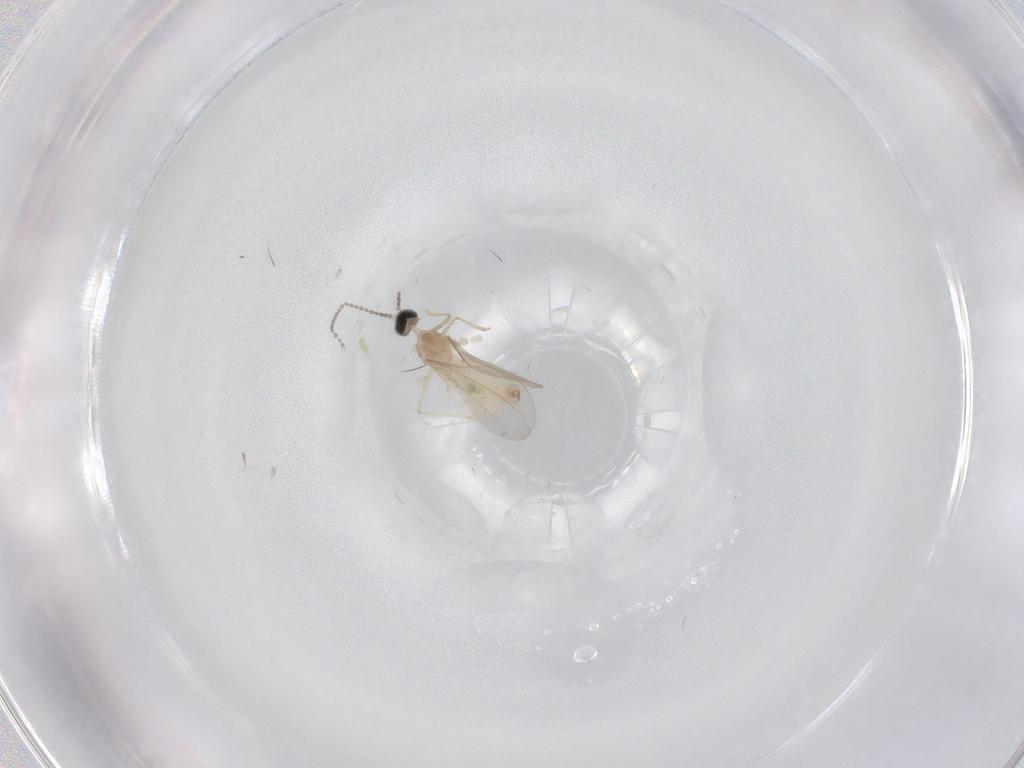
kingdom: Animalia
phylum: Arthropoda
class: Insecta
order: Diptera
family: Cecidomyiidae
